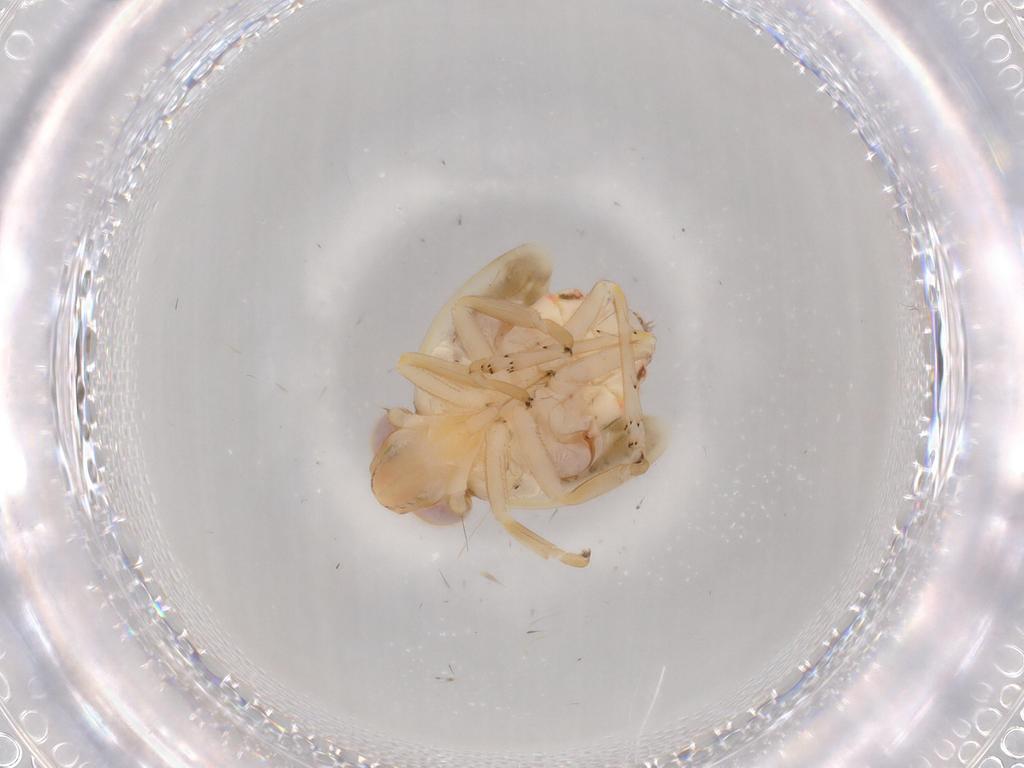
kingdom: Animalia
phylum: Arthropoda
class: Insecta
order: Hemiptera
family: Nogodinidae
